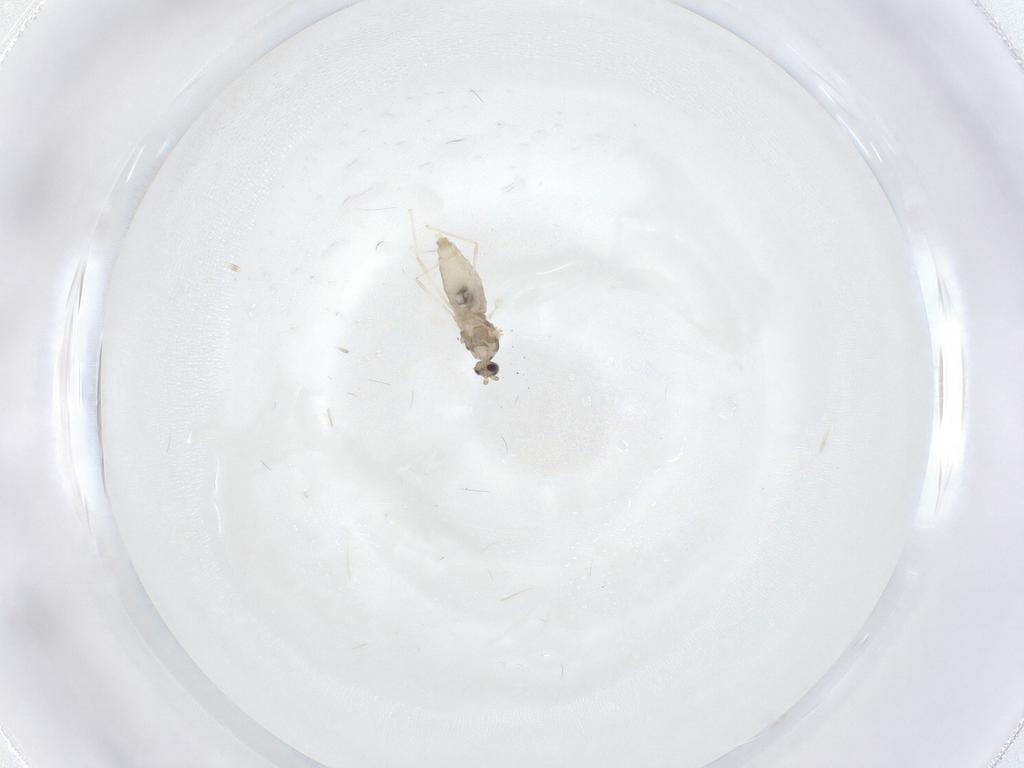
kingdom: Animalia
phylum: Arthropoda
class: Insecta
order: Diptera
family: Cecidomyiidae
